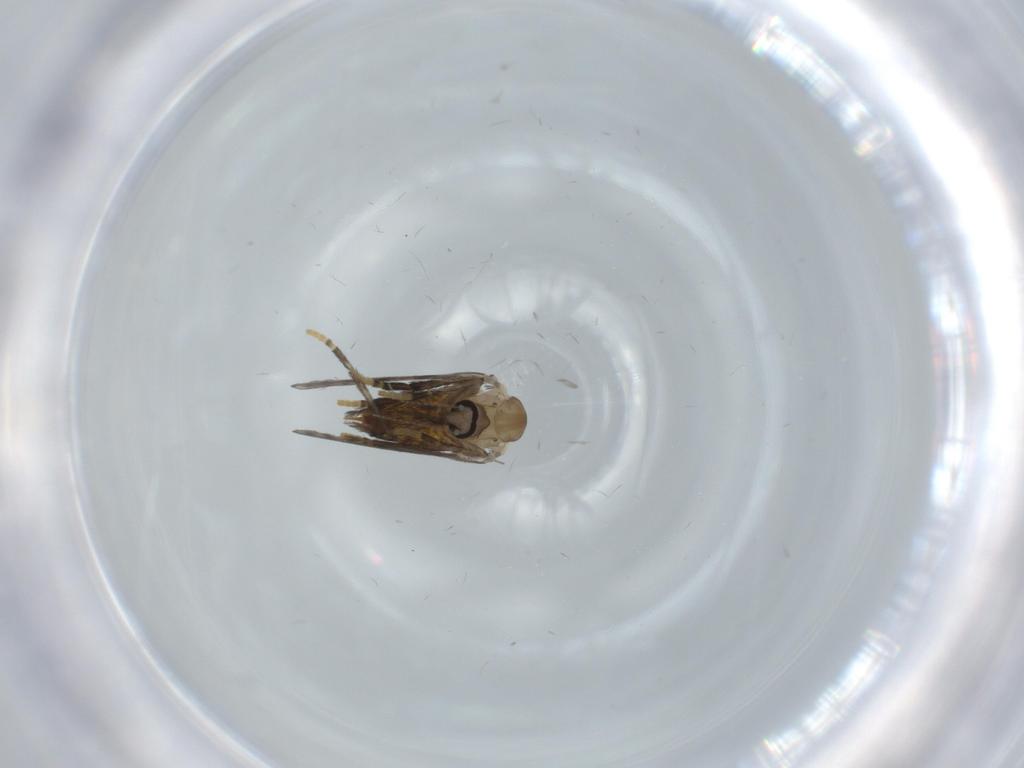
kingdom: Animalia
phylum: Arthropoda
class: Insecta
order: Diptera
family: Psychodidae
